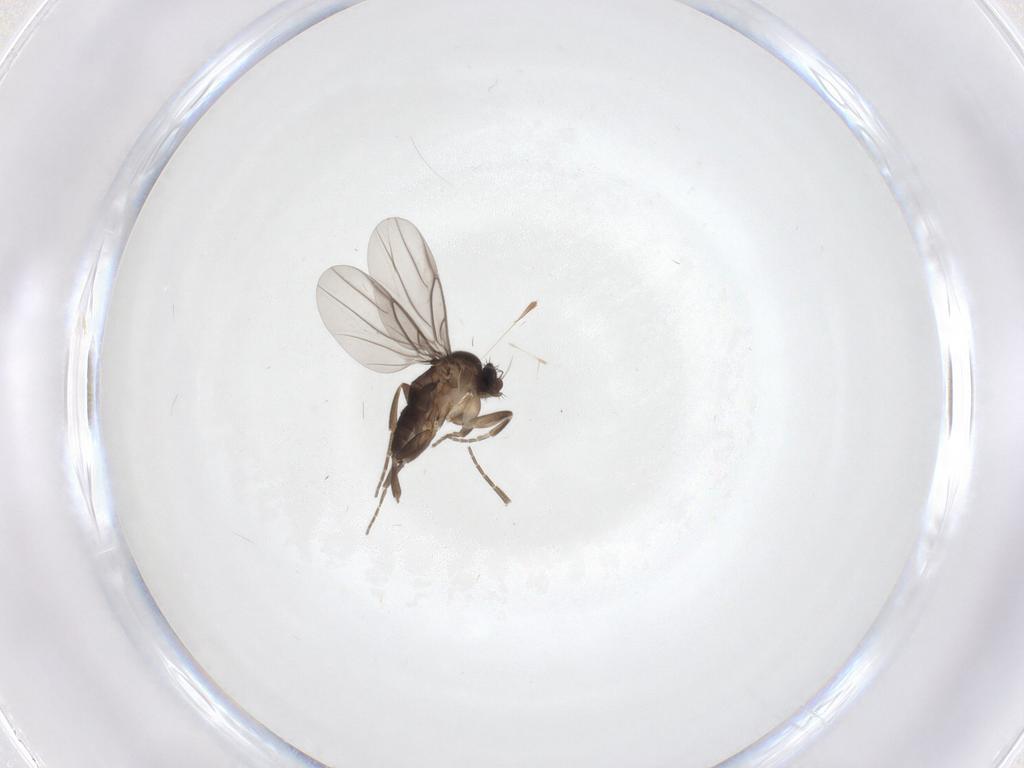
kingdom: Animalia
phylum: Arthropoda
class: Insecta
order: Diptera
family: Phoridae
